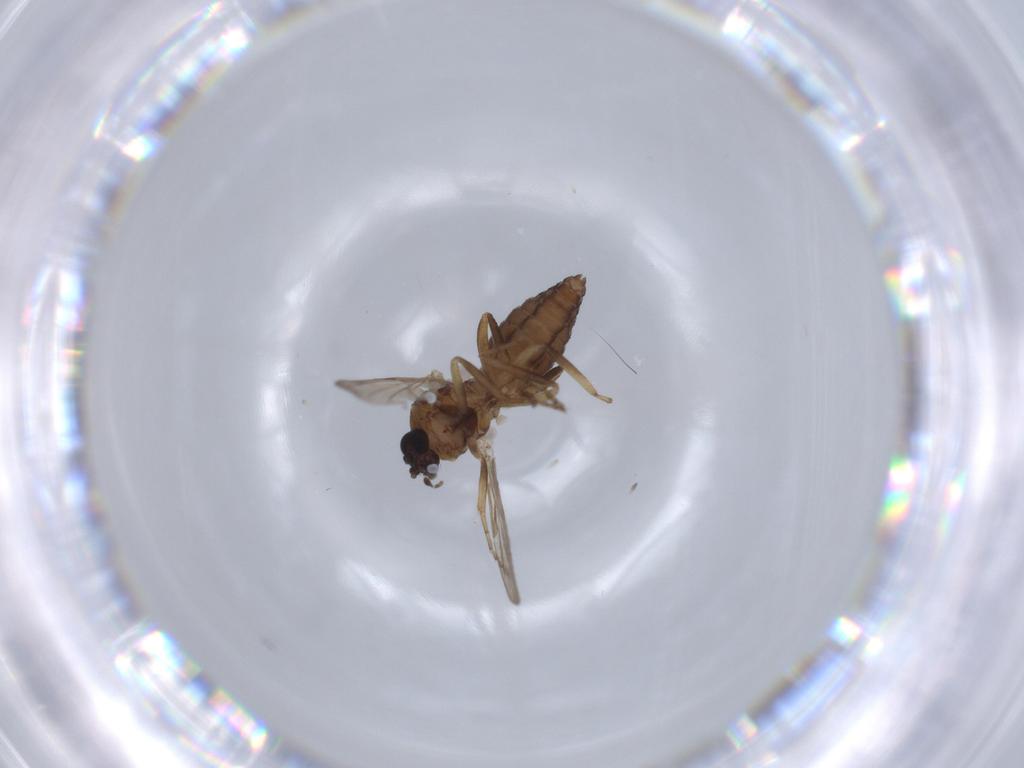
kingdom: Animalia
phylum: Arthropoda
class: Insecta
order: Diptera
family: Ceratopogonidae
